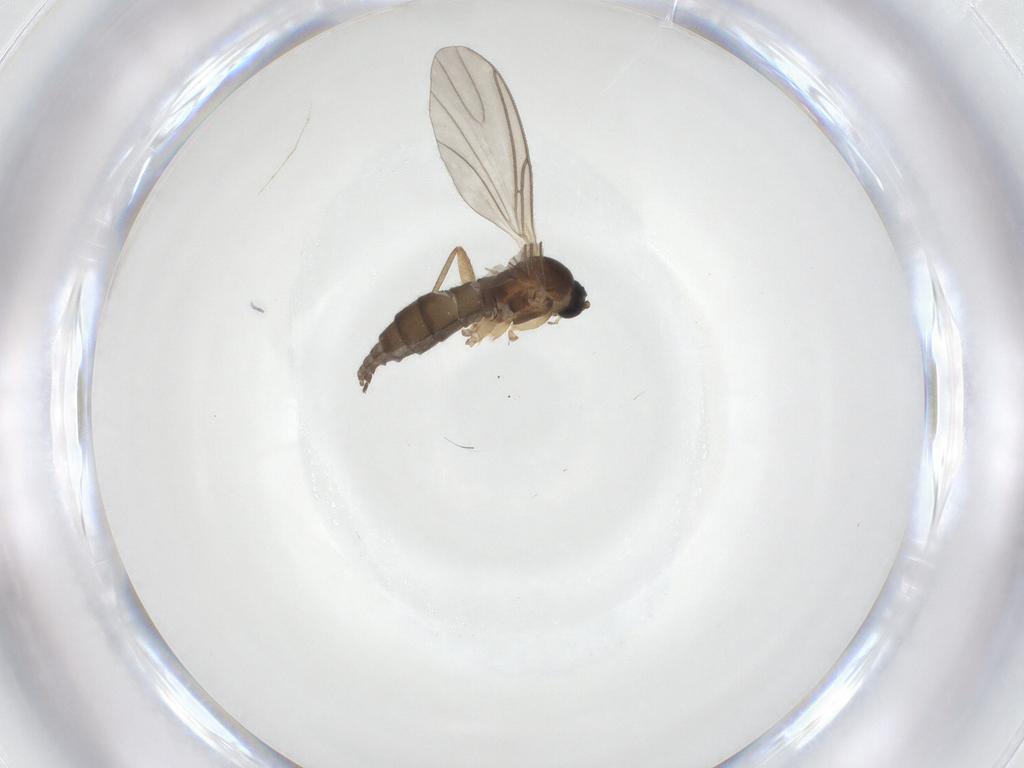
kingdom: Animalia
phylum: Arthropoda
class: Insecta
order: Diptera
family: Sciaridae
